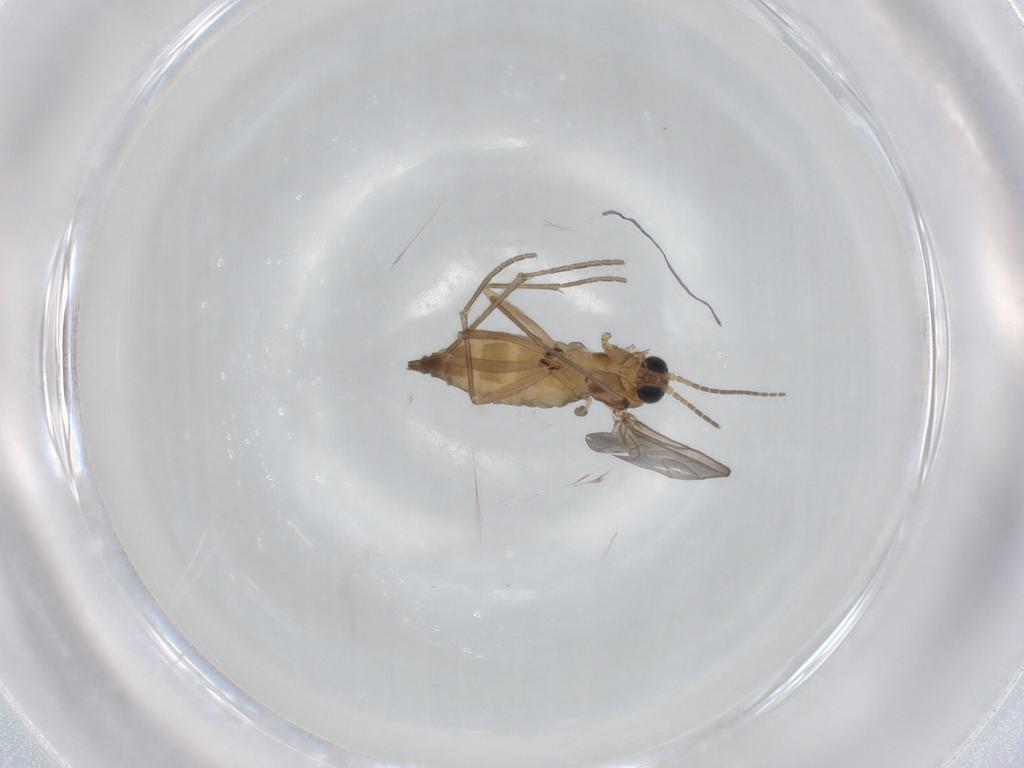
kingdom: Animalia
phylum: Arthropoda
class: Insecta
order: Diptera
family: Sciaridae
